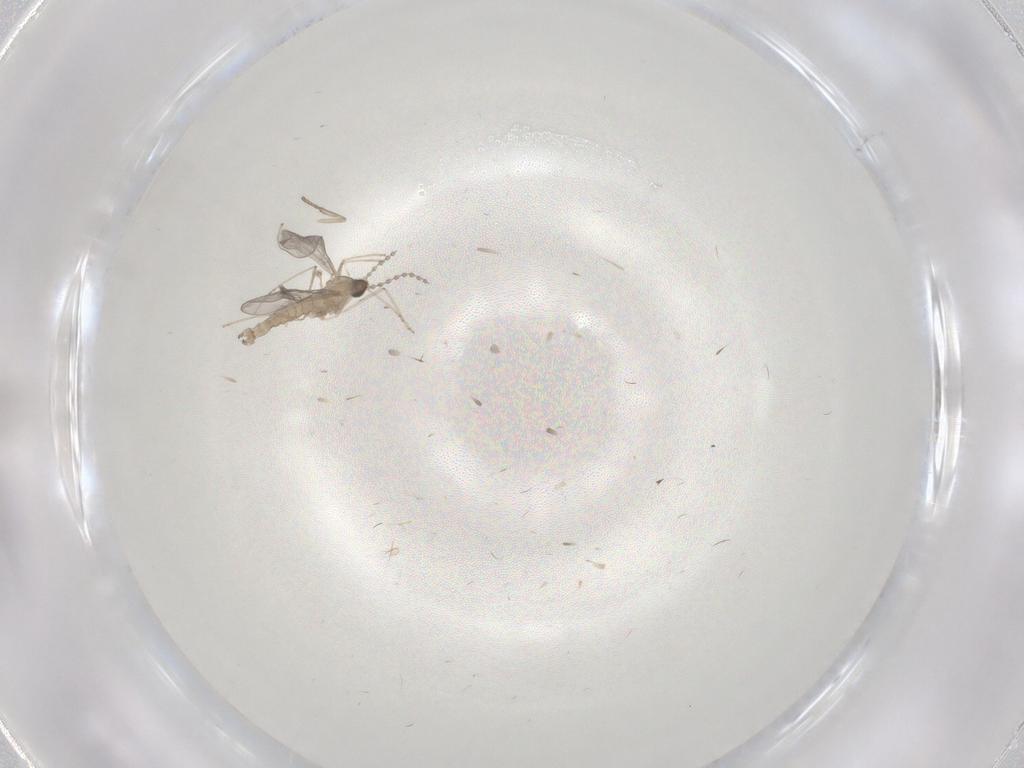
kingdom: Animalia
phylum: Arthropoda
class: Insecta
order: Diptera
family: Cecidomyiidae
